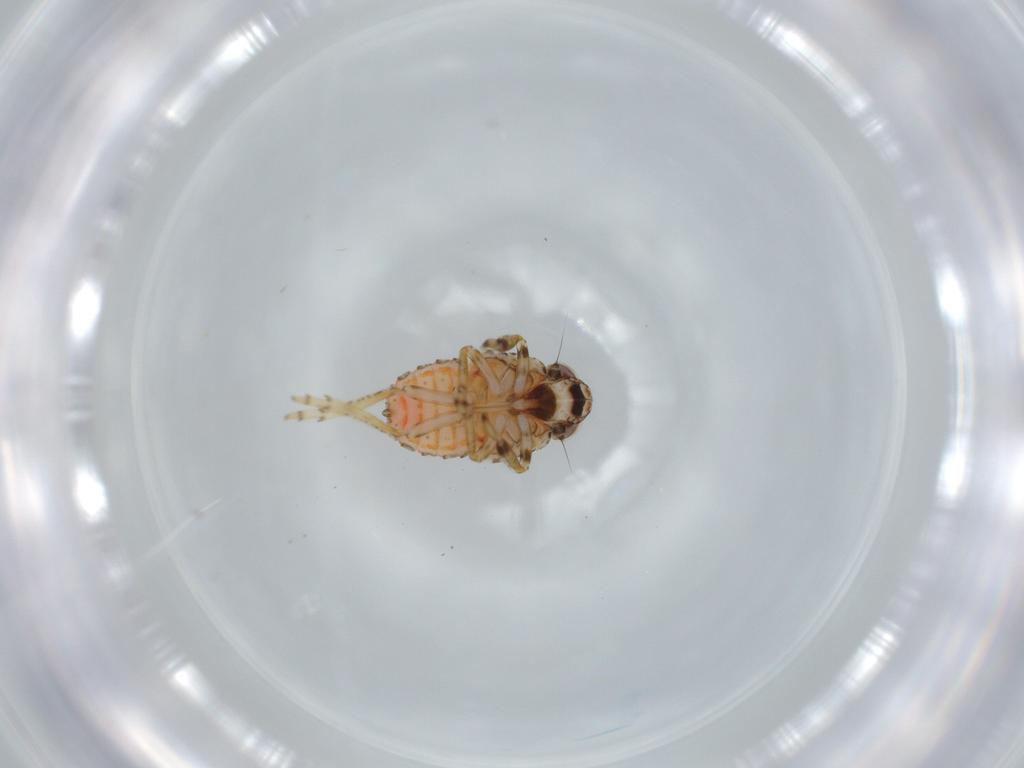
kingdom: Animalia
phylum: Arthropoda
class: Insecta
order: Hemiptera
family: Issidae
